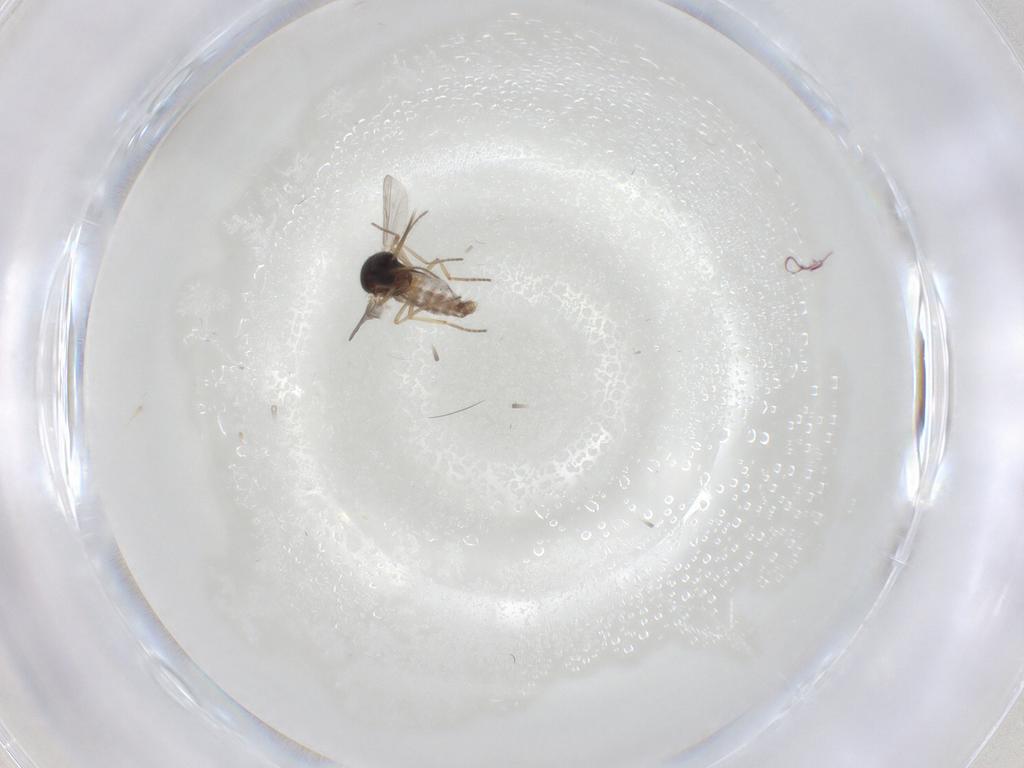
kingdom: Animalia
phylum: Arthropoda
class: Insecta
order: Diptera
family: Phoridae
